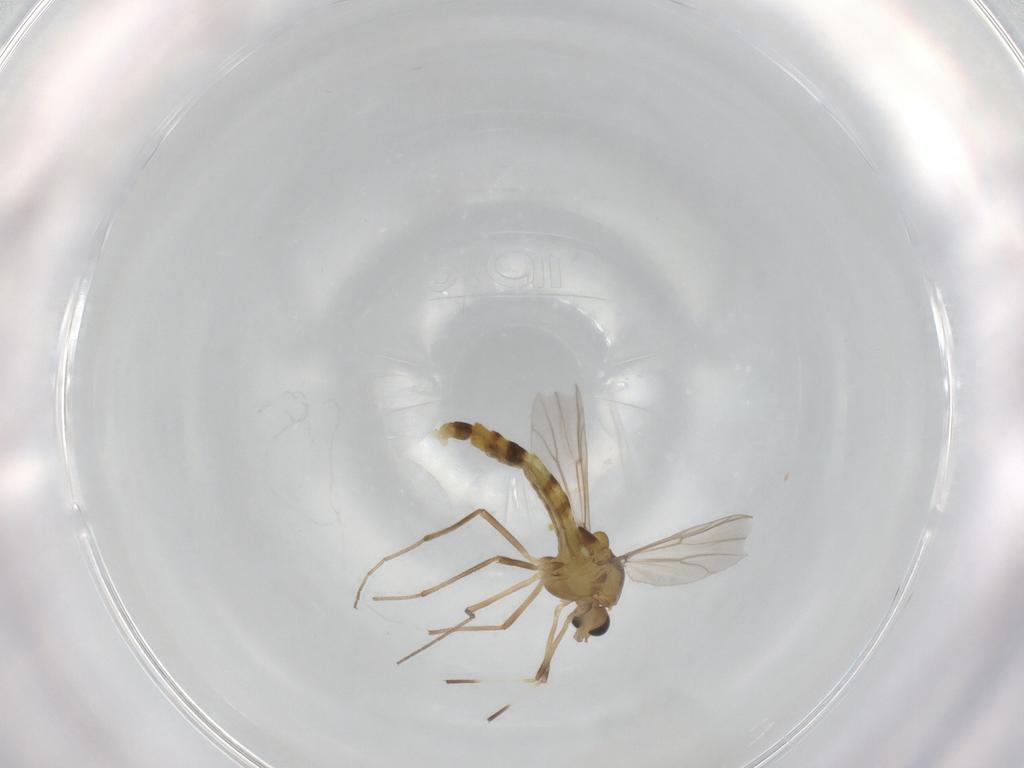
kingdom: Animalia
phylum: Arthropoda
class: Insecta
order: Diptera
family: Chironomidae
